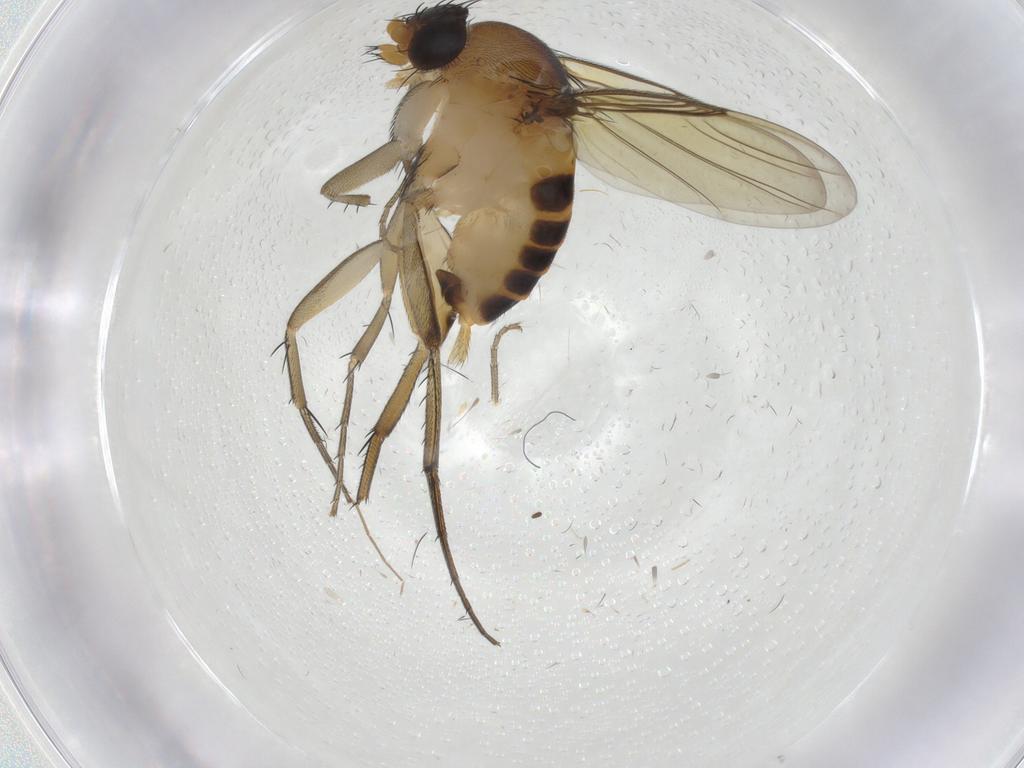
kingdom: Animalia
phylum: Arthropoda
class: Insecta
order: Diptera
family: Phoridae
